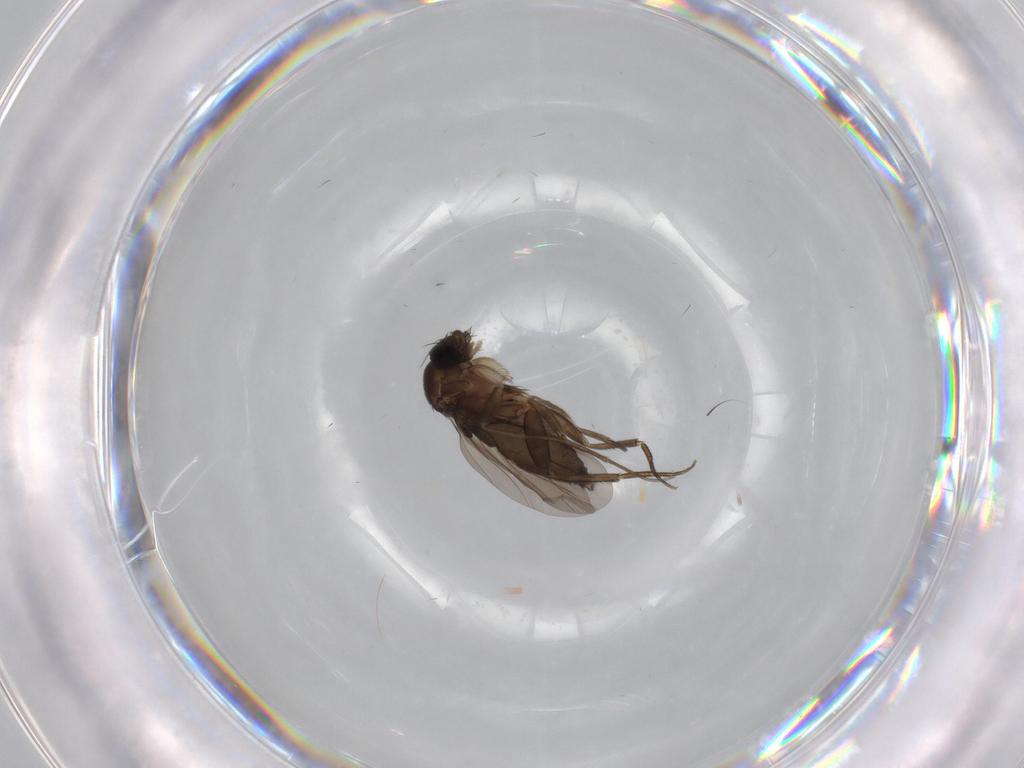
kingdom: Animalia
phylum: Arthropoda
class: Insecta
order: Diptera
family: Phoridae
